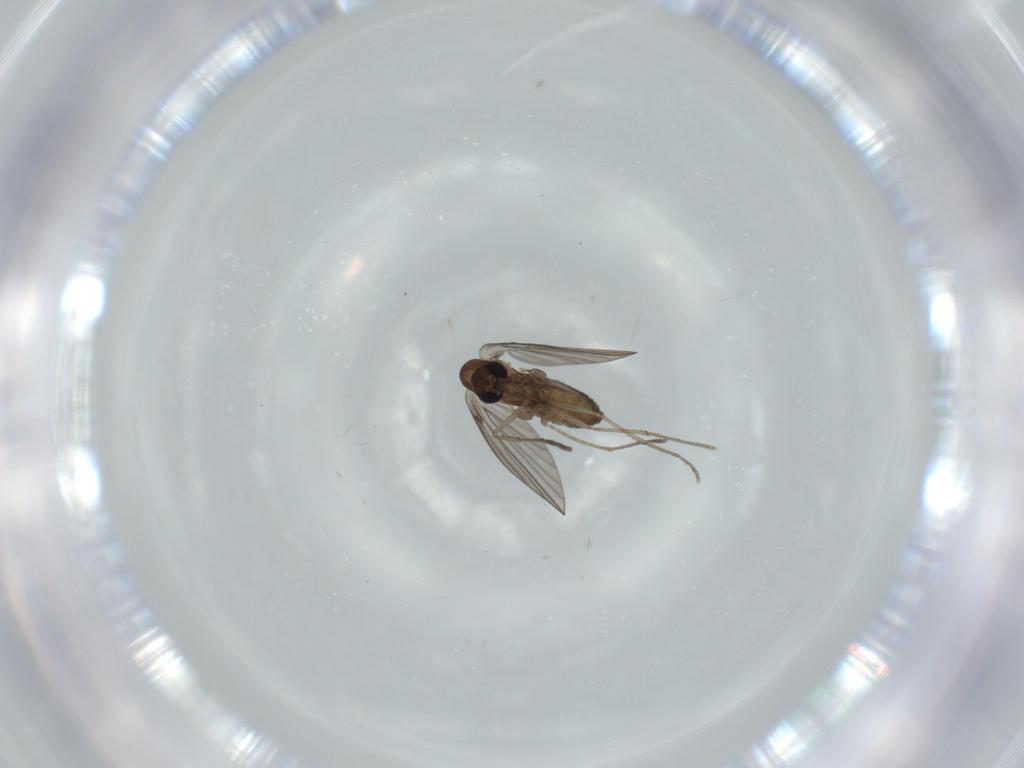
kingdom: Animalia
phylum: Arthropoda
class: Insecta
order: Diptera
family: Psychodidae
